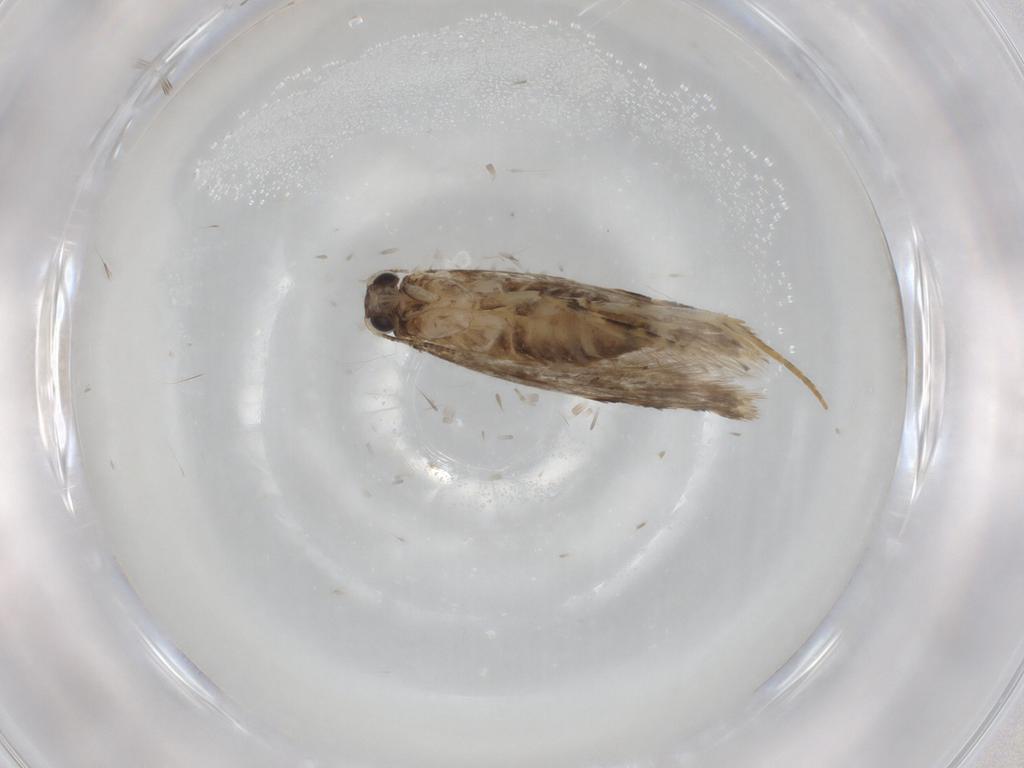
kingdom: Animalia
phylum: Arthropoda
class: Insecta
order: Lepidoptera
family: Tineidae
